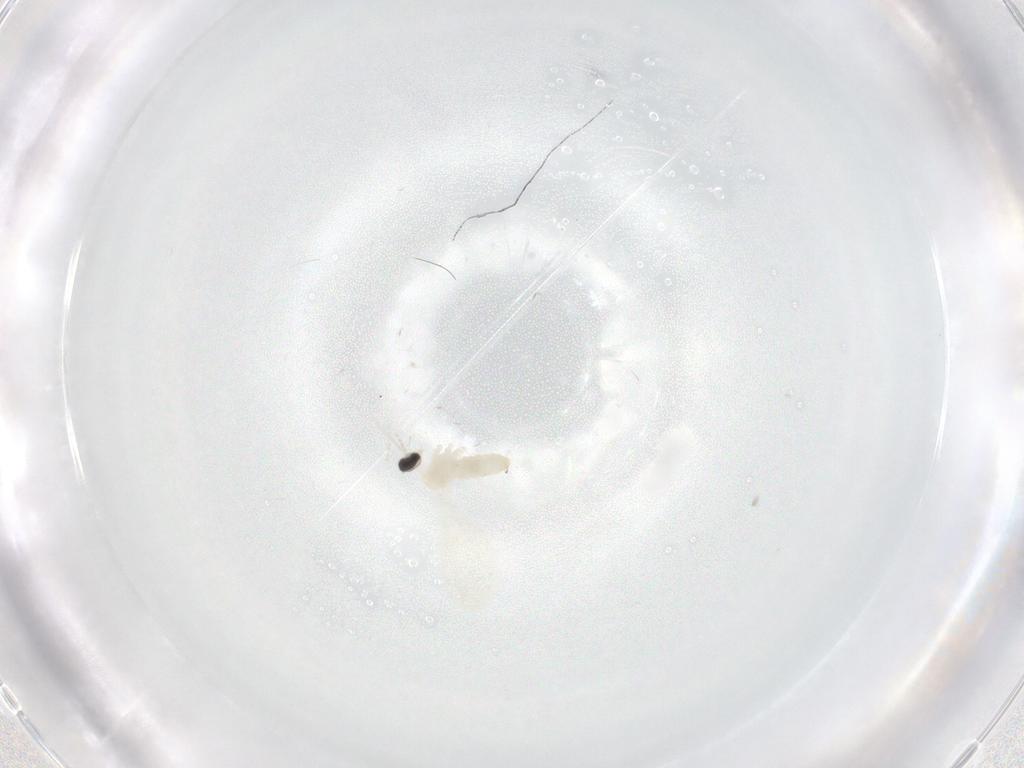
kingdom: Animalia
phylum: Arthropoda
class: Insecta
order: Diptera
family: Cecidomyiidae
